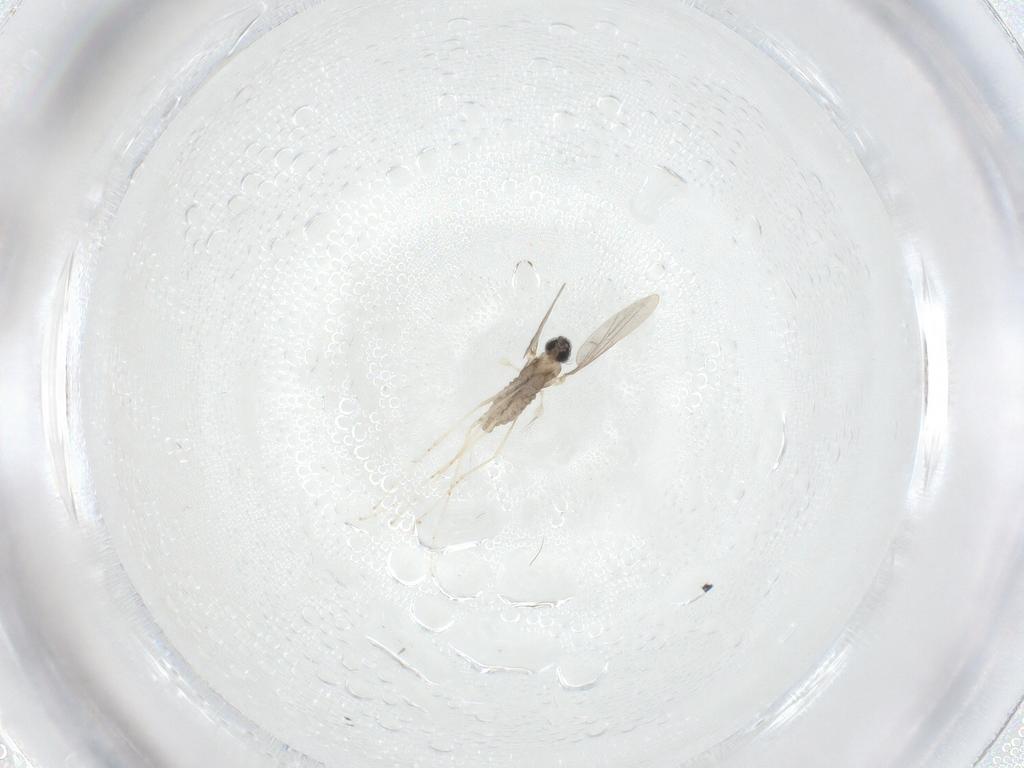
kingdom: Animalia
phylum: Arthropoda
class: Insecta
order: Diptera
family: Cecidomyiidae
